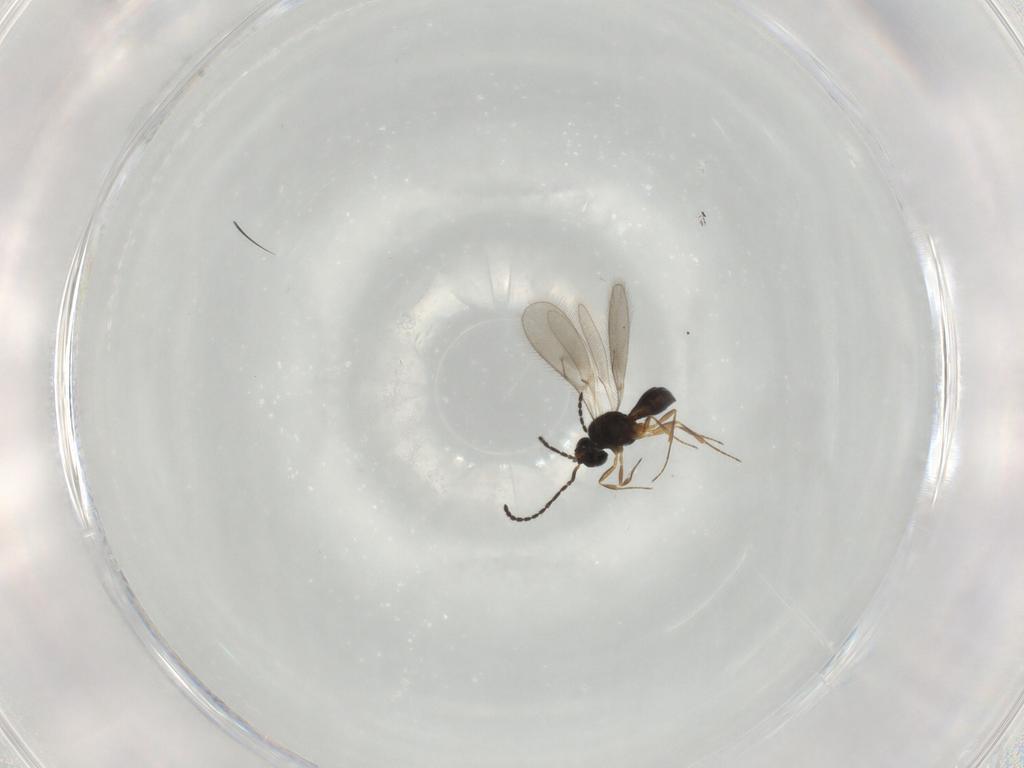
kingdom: Animalia
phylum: Arthropoda
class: Insecta
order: Hymenoptera
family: Scelionidae
